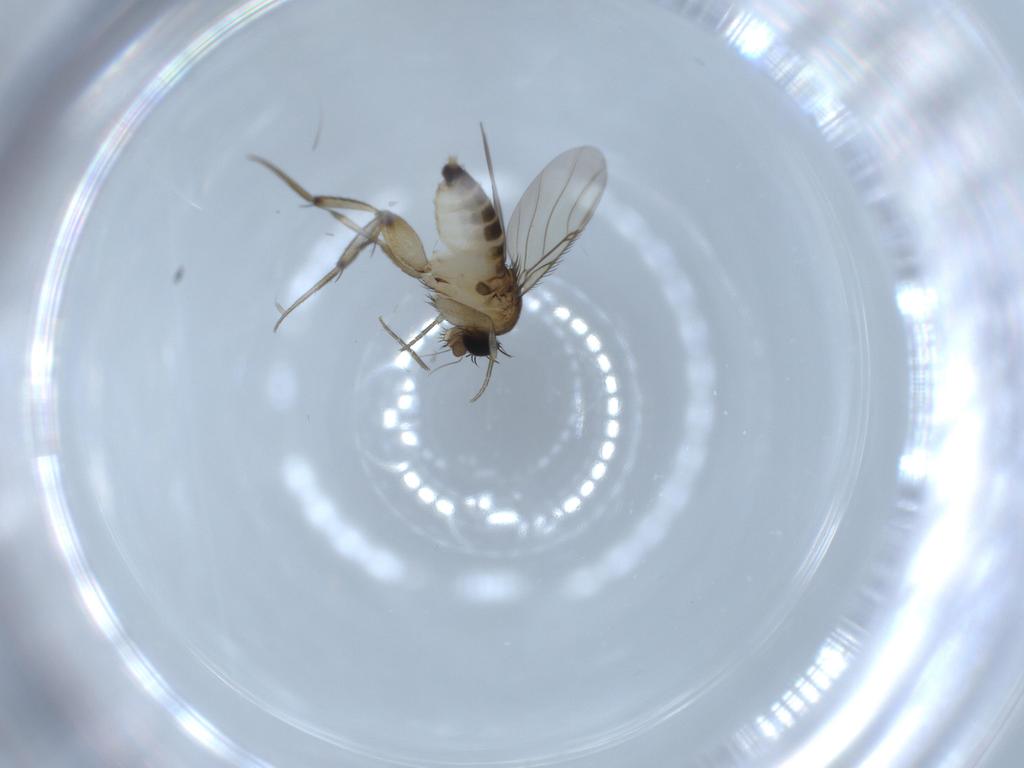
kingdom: Animalia
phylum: Arthropoda
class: Insecta
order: Diptera
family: Phoridae
